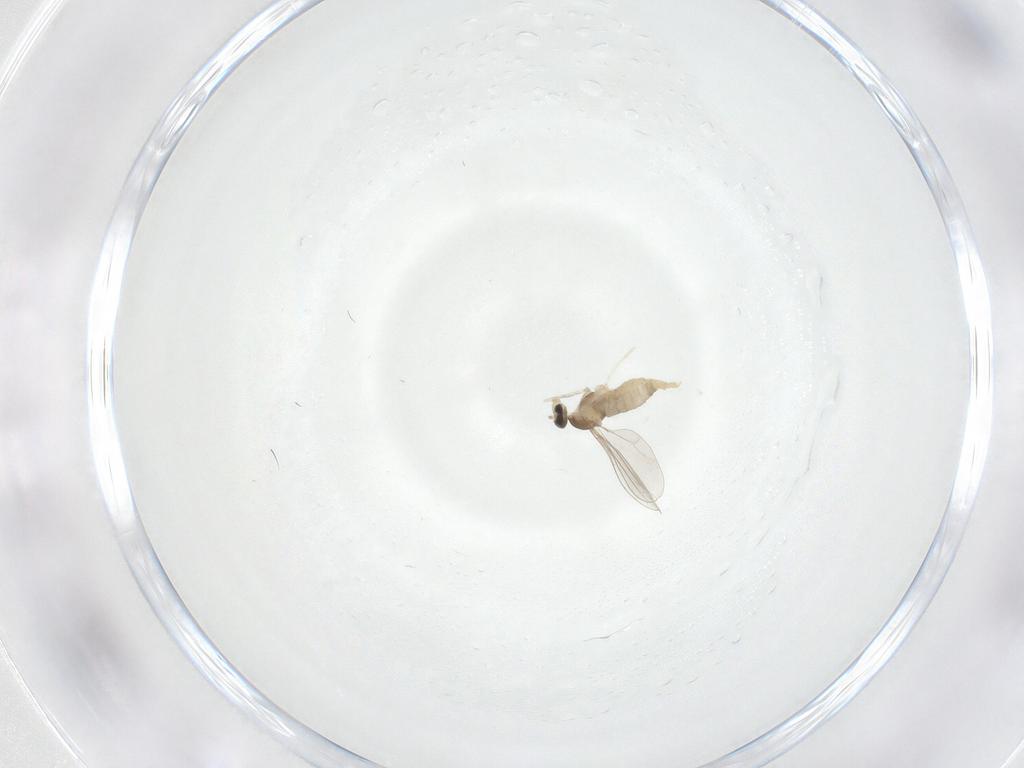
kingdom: Animalia
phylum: Arthropoda
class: Insecta
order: Diptera
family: Cecidomyiidae
